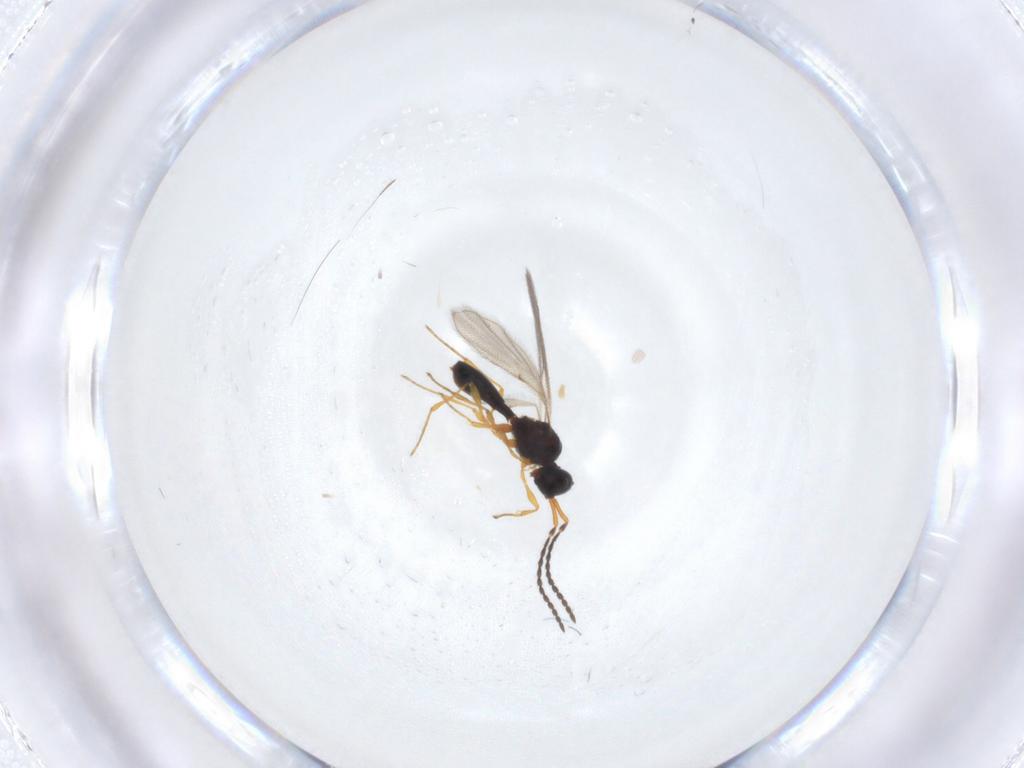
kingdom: Animalia
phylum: Arthropoda
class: Insecta
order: Hymenoptera
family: Diapriidae
